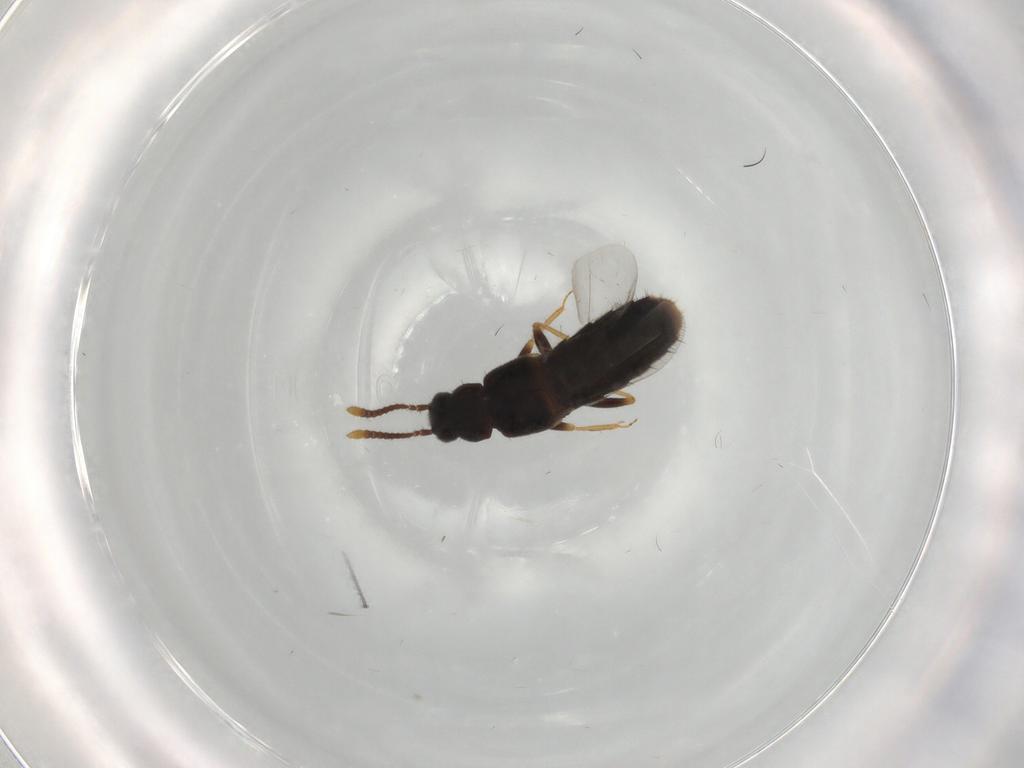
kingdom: Animalia
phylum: Arthropoda
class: Insecta
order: Coleoptera
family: Staphylinidae
